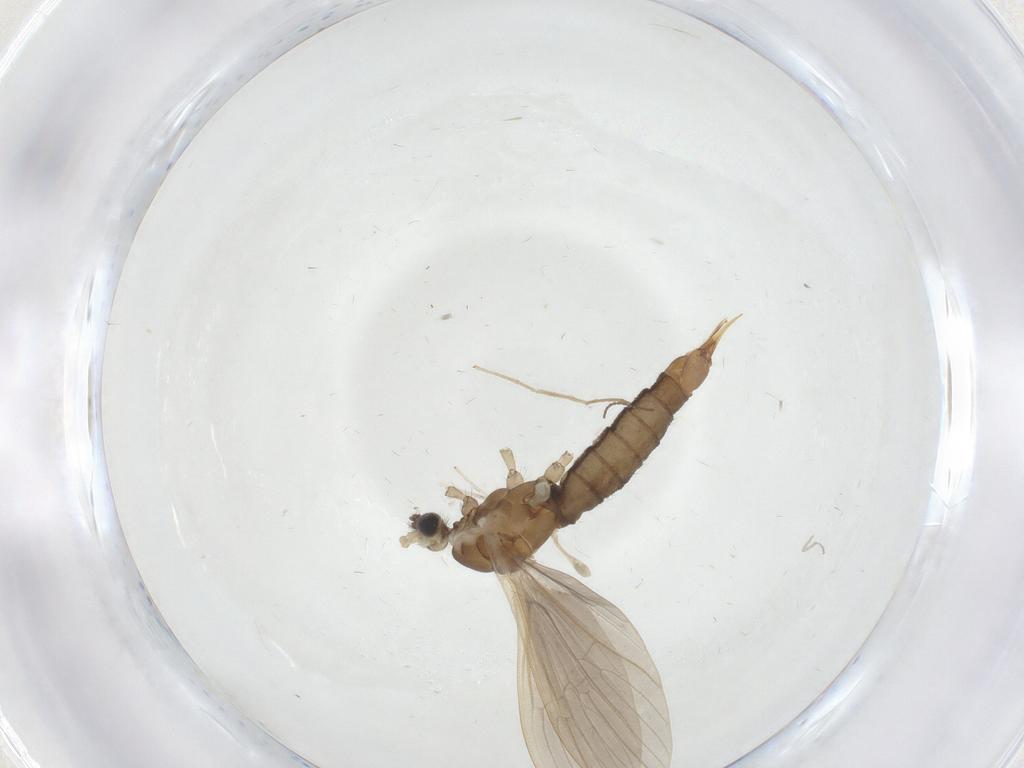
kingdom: Animalia
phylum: Arthropoda
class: Insecta
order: Diptera
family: Limoniidae
